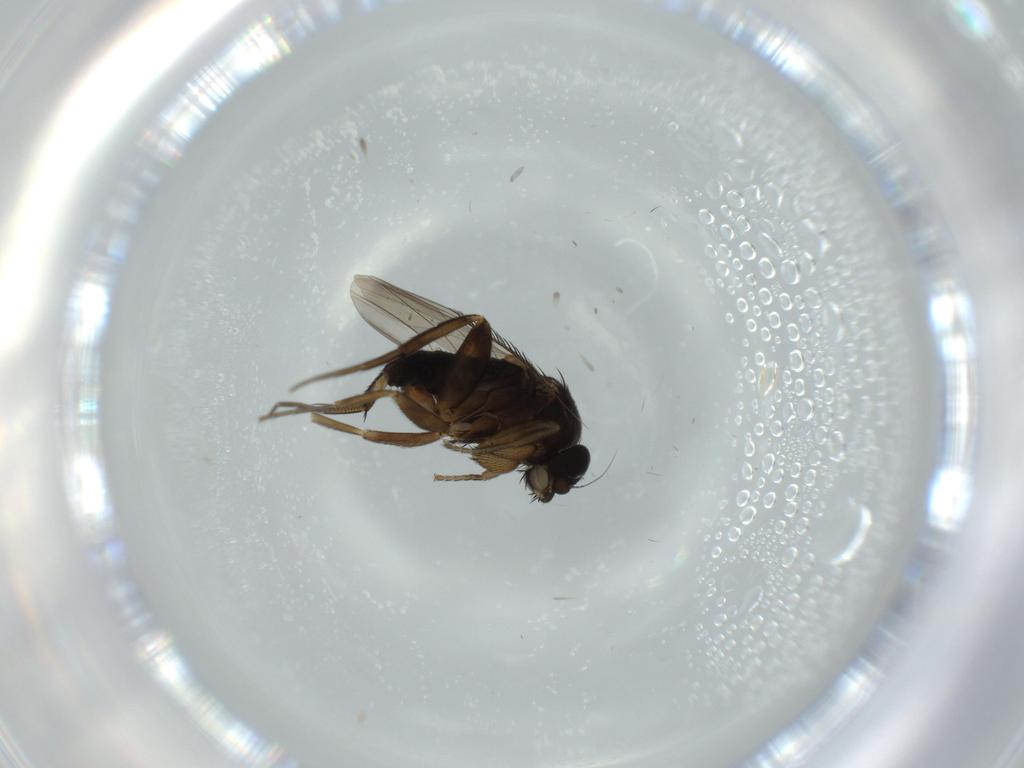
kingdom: Animalia
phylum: Arthropoda
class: Insecta
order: Diptera
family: Phoridae
